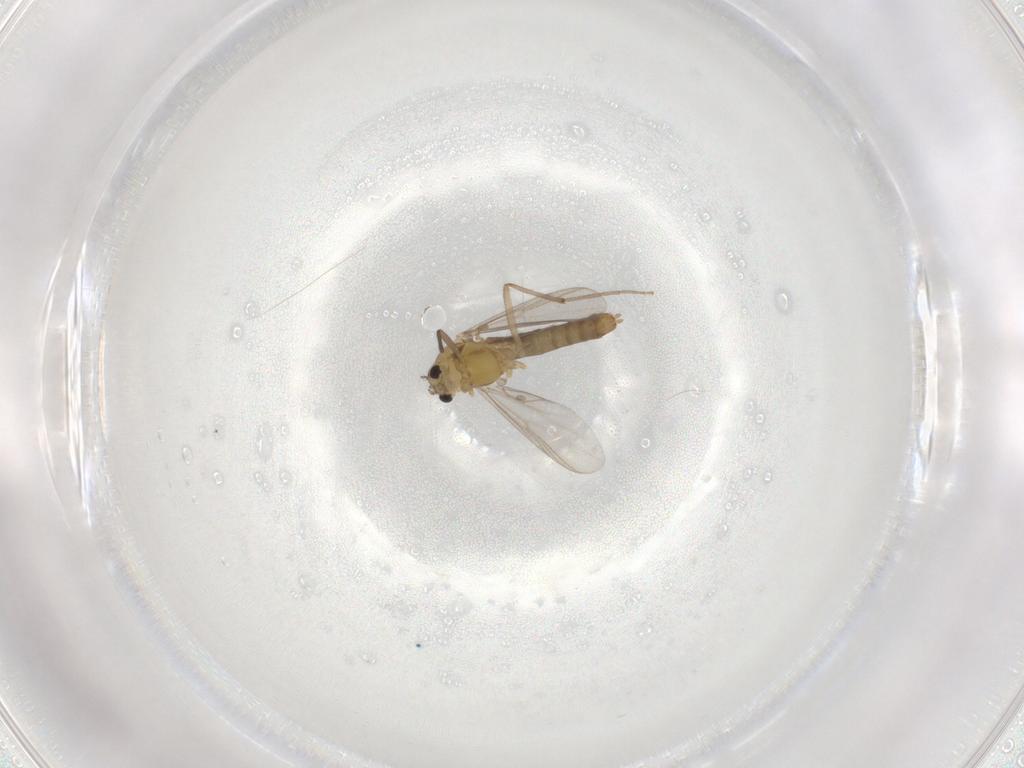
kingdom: Animalia
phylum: Arthropoda
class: Insecta
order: Diptera
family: Chironomidae
